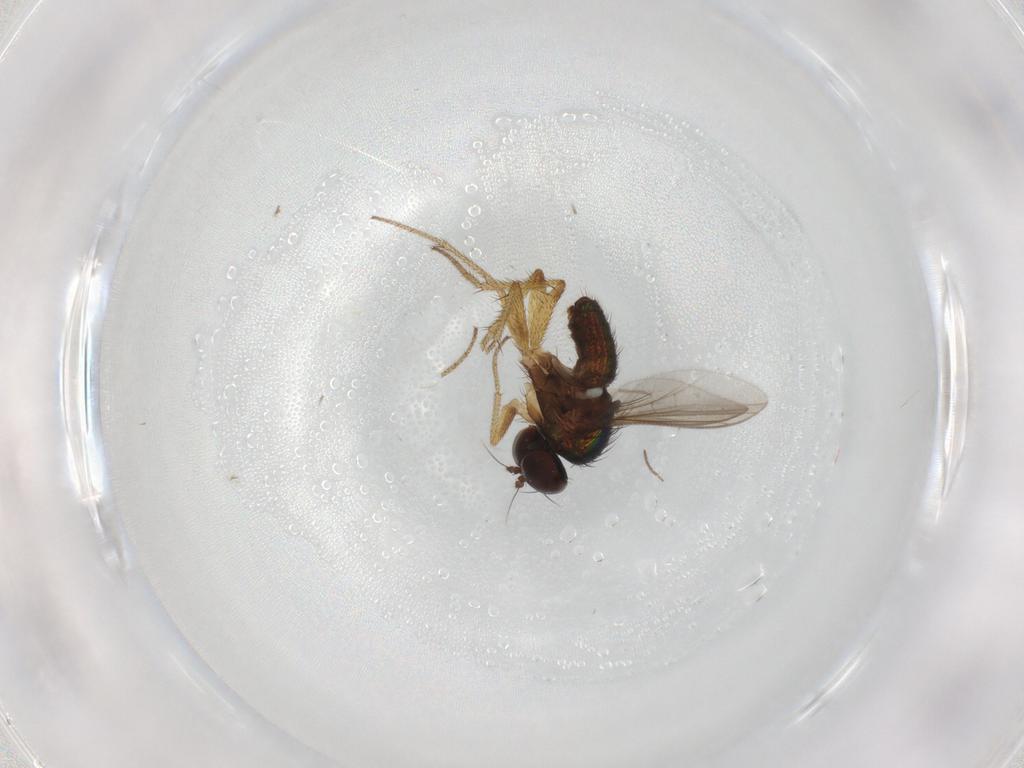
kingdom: Animalia
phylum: Arthropoda
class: Insecta
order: Diptera
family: Chironomidae
